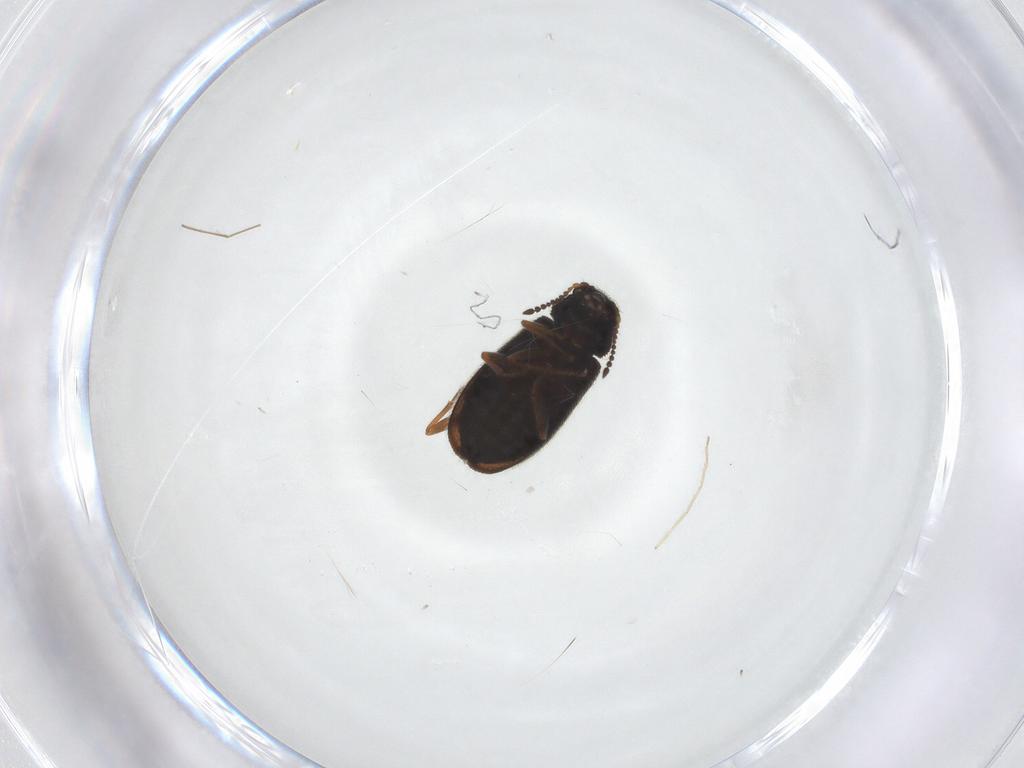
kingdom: Animalia
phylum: Arthropoda
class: Insecta
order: Coleoptera
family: Melyridae
